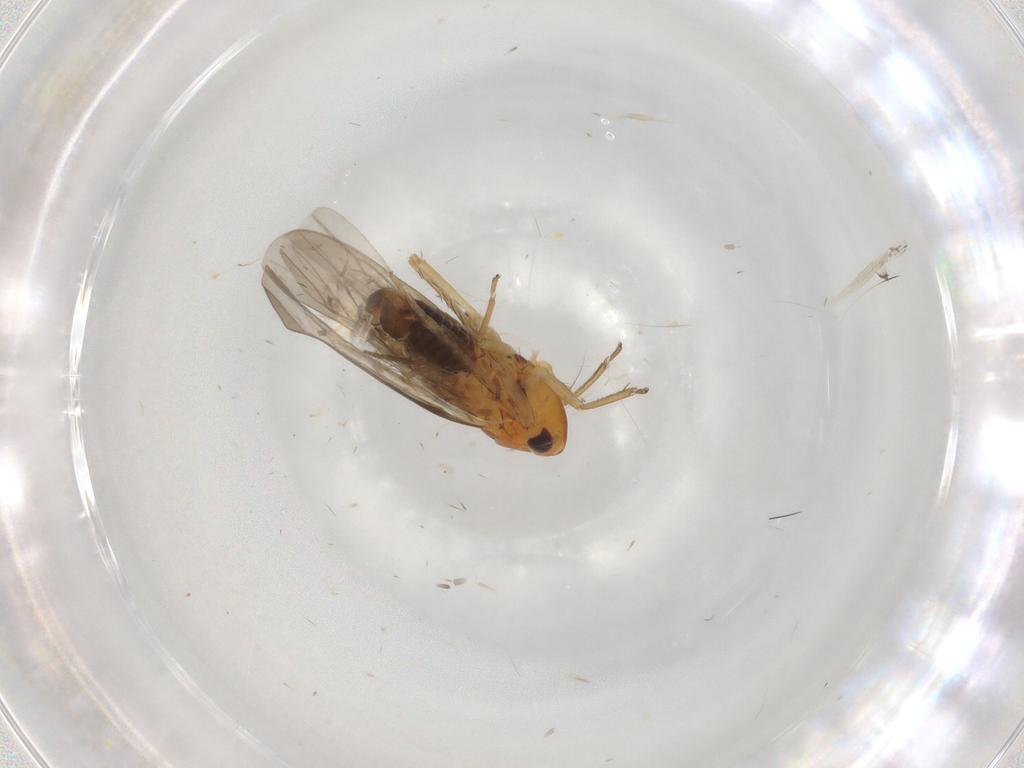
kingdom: Animalia
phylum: Arthropoda
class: Insecta
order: Hemiptera
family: Cicadellidae
